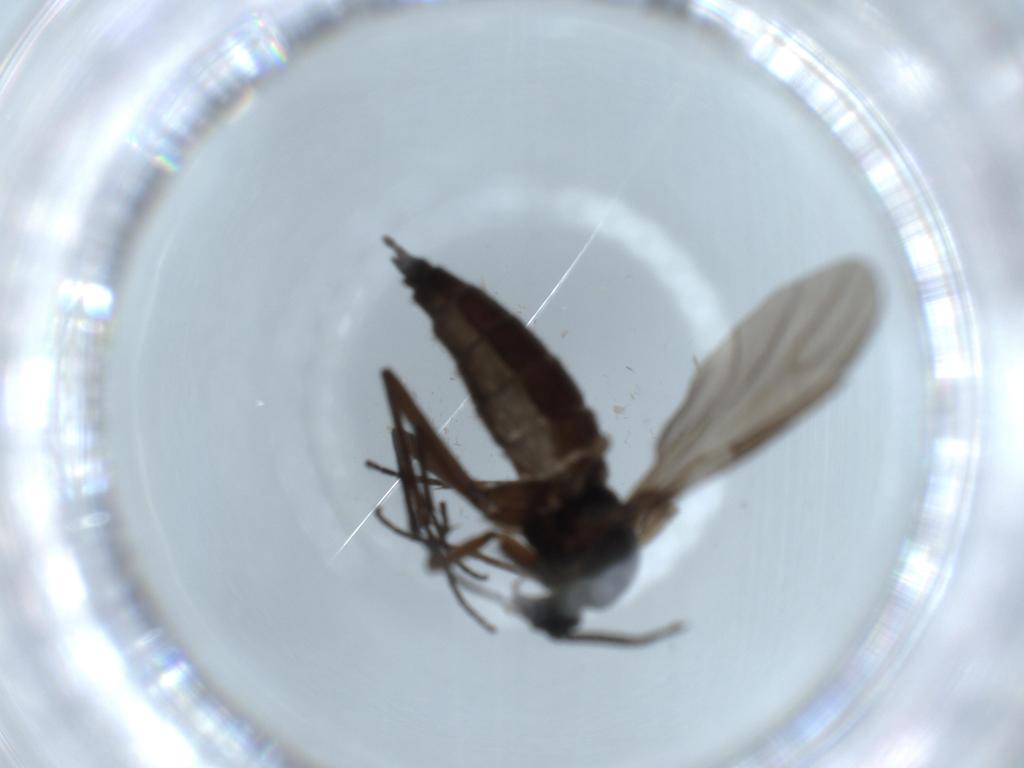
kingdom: Animalia
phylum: Arthropoda
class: Insecta
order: Diptera
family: Sciaridae
